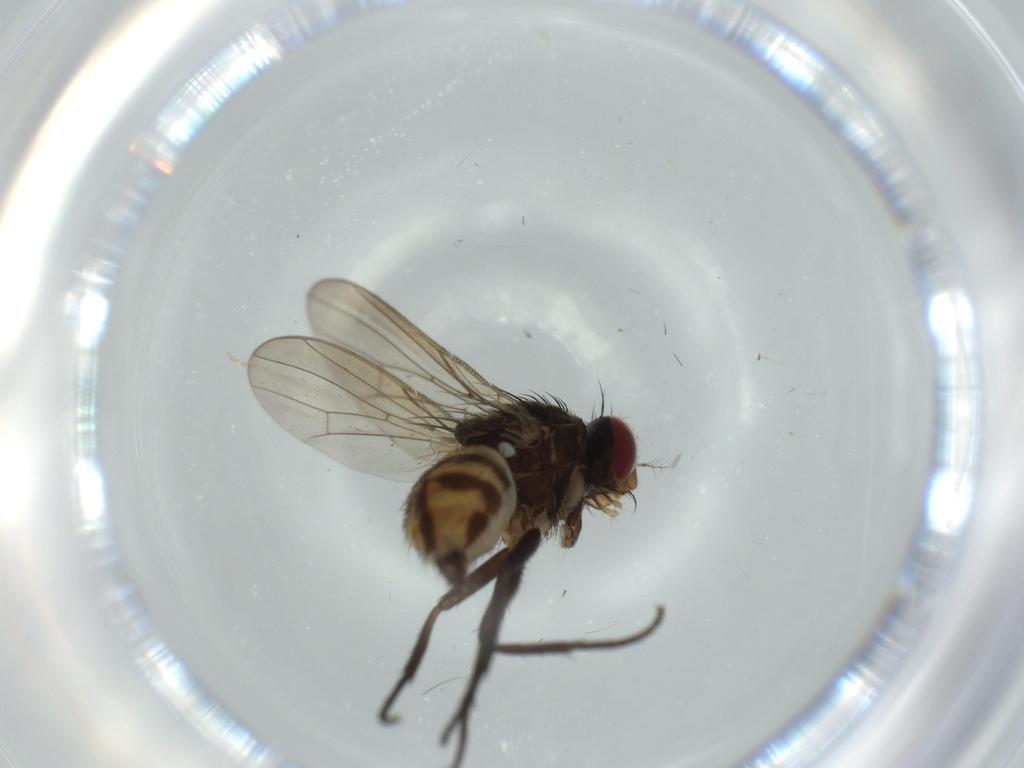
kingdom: Animalia
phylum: Arthropoda
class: Insecta
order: Diptera
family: Anthomyiidae
